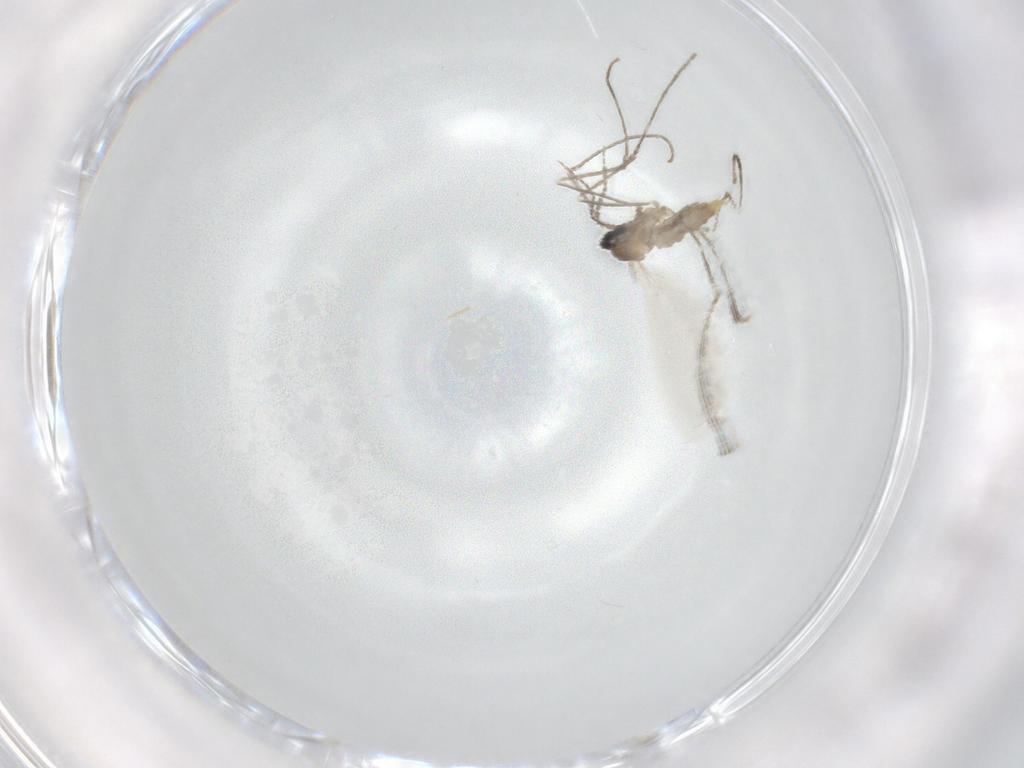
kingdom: Animalia
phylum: Arthropoda
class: Insecta
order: Diptera
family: Cecidomyiidae
